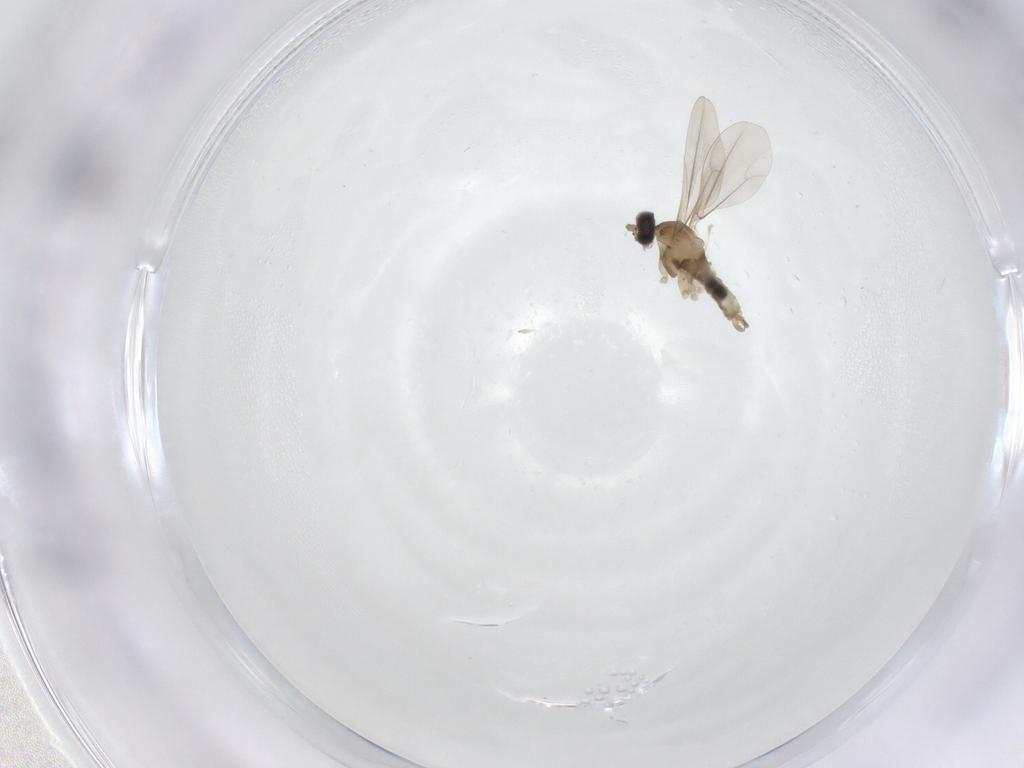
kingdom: Animalia
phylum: Arthropoda
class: Insecta
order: Diptera
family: Cecidomyiidae
